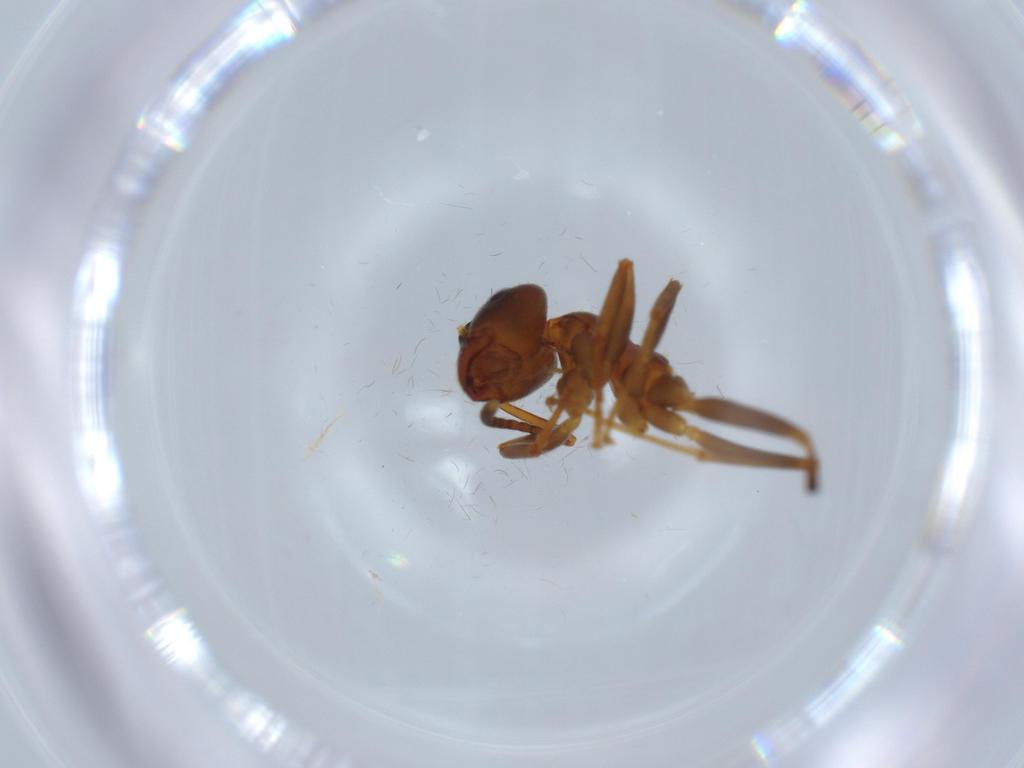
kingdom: Animalia
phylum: Arthropoda
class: Insecta
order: Hymenoptera
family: Formicidae
